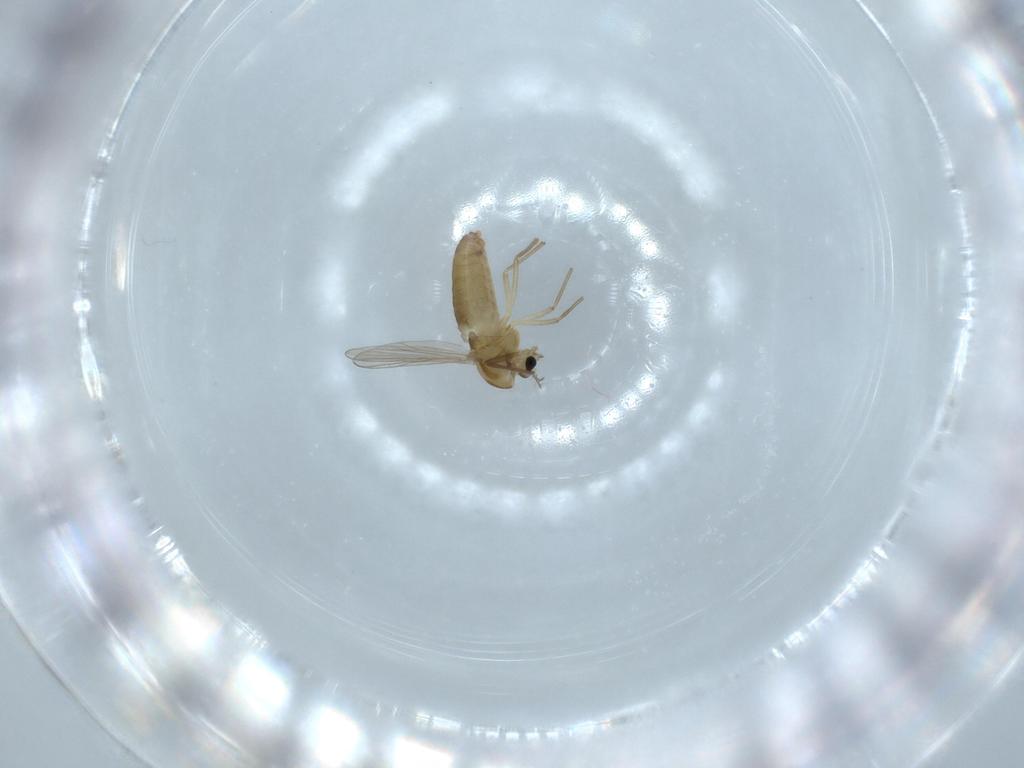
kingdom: Animalia
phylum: Arthropoda
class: Insecta
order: Diptera
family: Chironomidae
